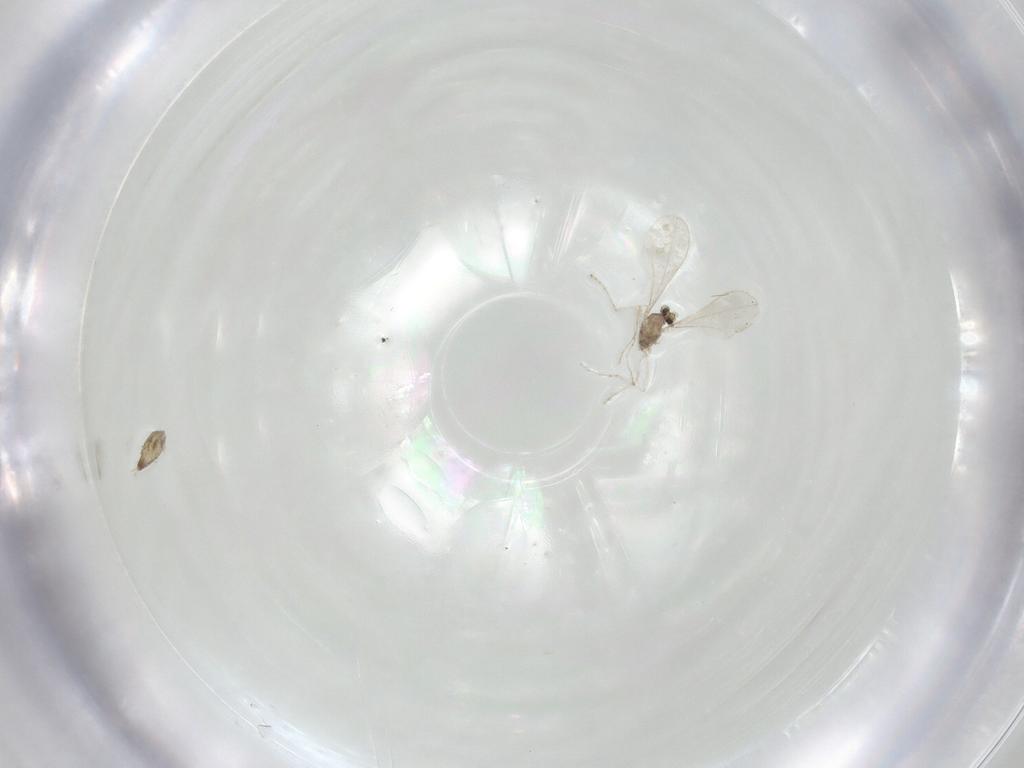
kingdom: Animalia
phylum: Arthropoda
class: Insecta
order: Diptera
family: Cecidomyiidae
